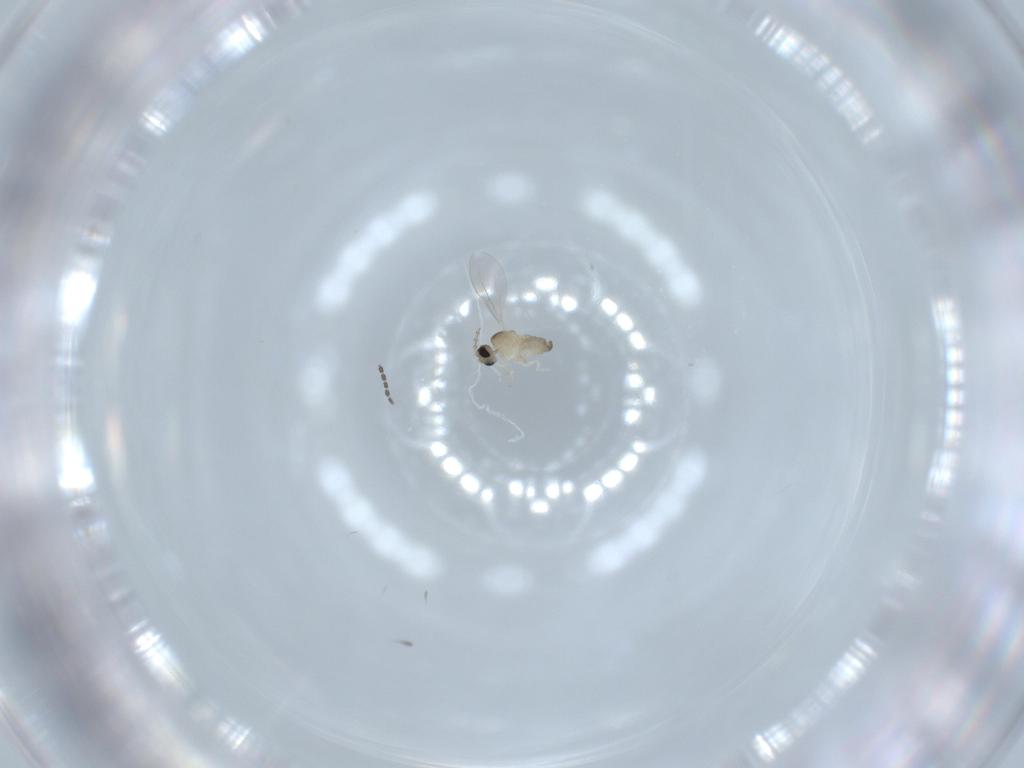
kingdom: Animalia
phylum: Arthropoda
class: Insecta
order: Diptera
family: Cecidomyiidae
